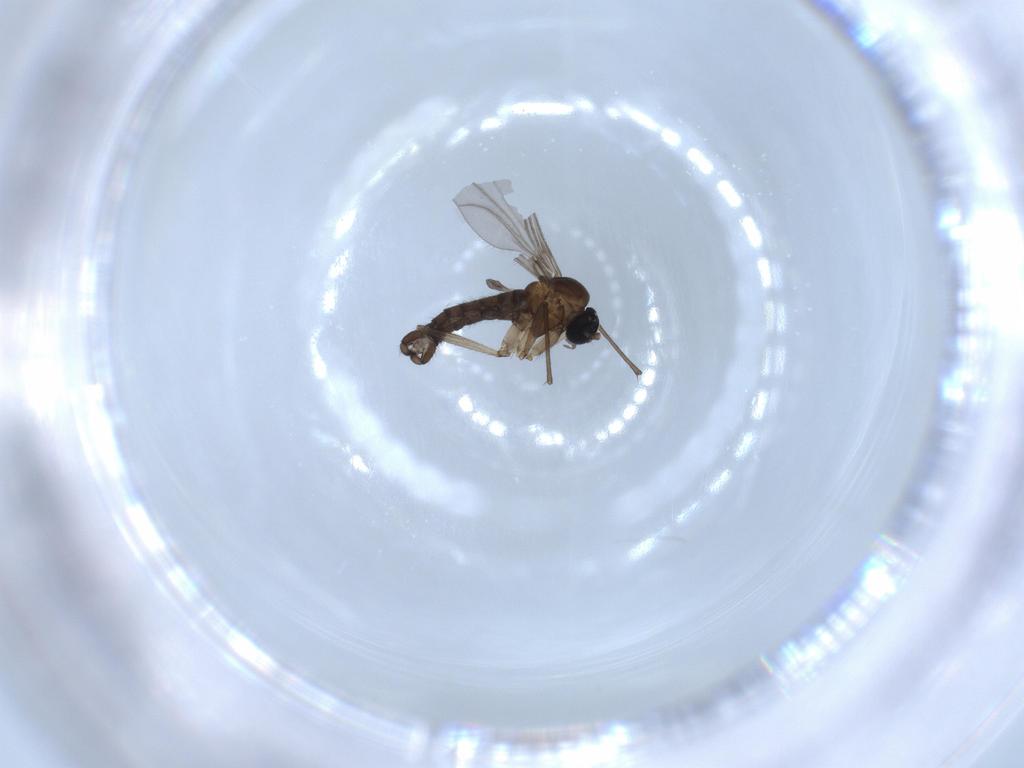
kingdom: Animalia
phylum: Arthropoda
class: Insecta
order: Diptera
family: Sciaridae
